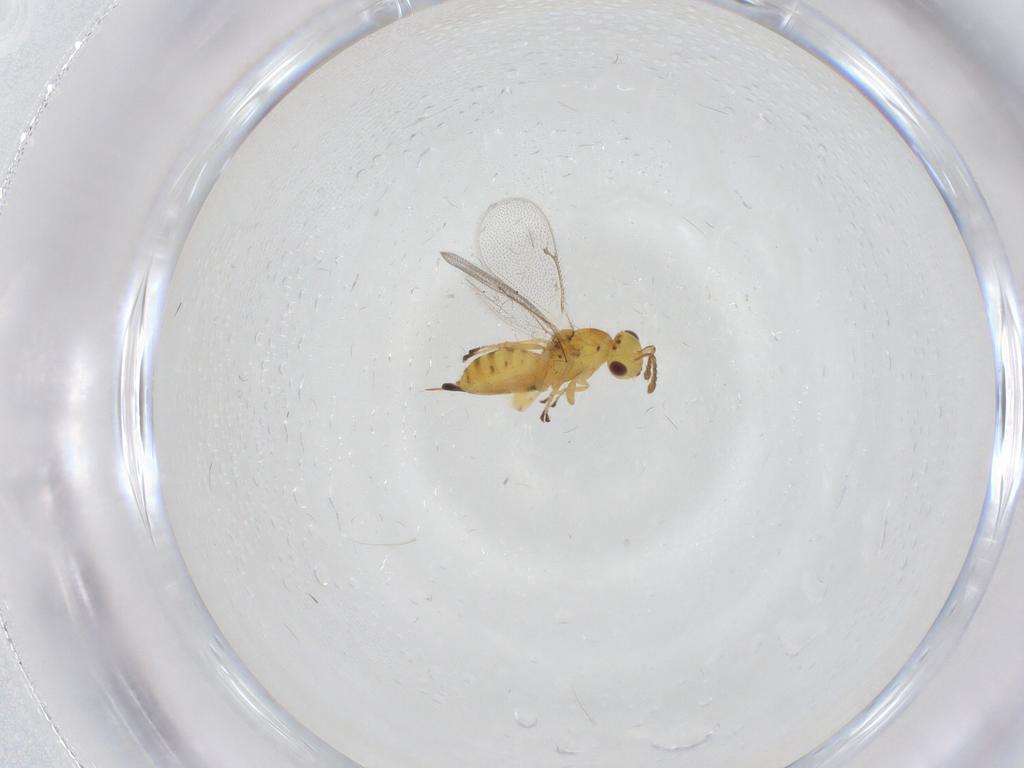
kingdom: Animalia
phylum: Arthropoda
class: Insecta
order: Hymenoptera
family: Eulophidae
